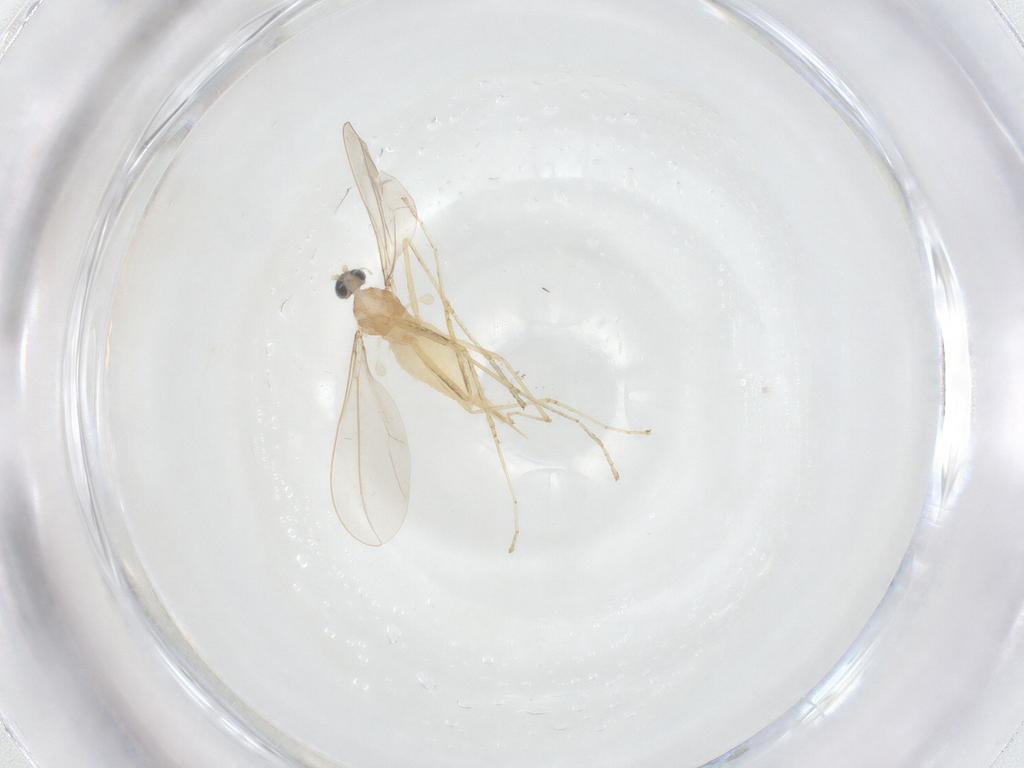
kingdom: Animalia
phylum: Arthropoda
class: Insecta
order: Diptera
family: Cecidomyiidae
